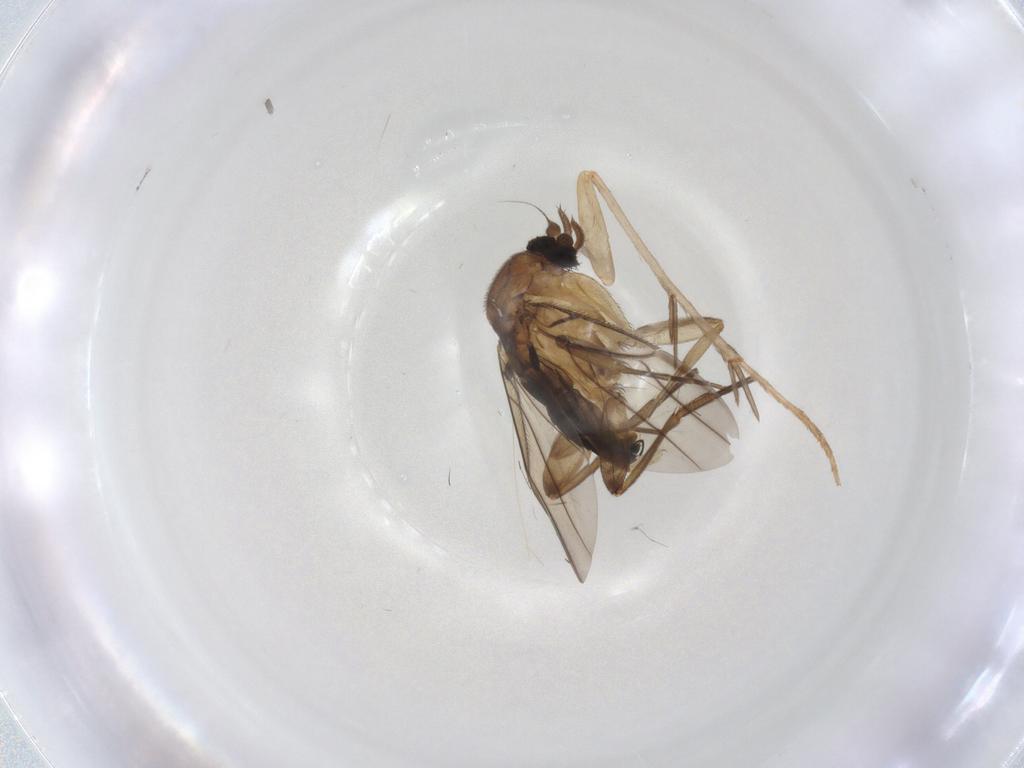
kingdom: Animalia
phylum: Arthropoda
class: Insecta
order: Diptera
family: Phoridae
